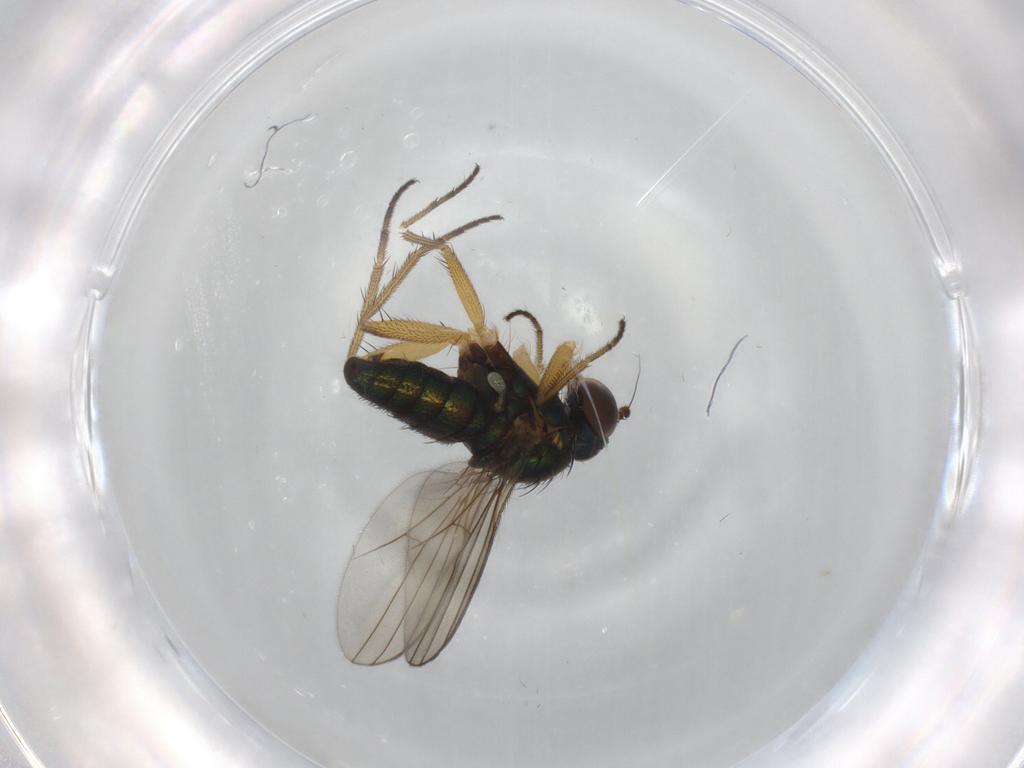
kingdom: Animalia
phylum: Arthropoda
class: Insecta
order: Diptera
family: Dolichopodidae
